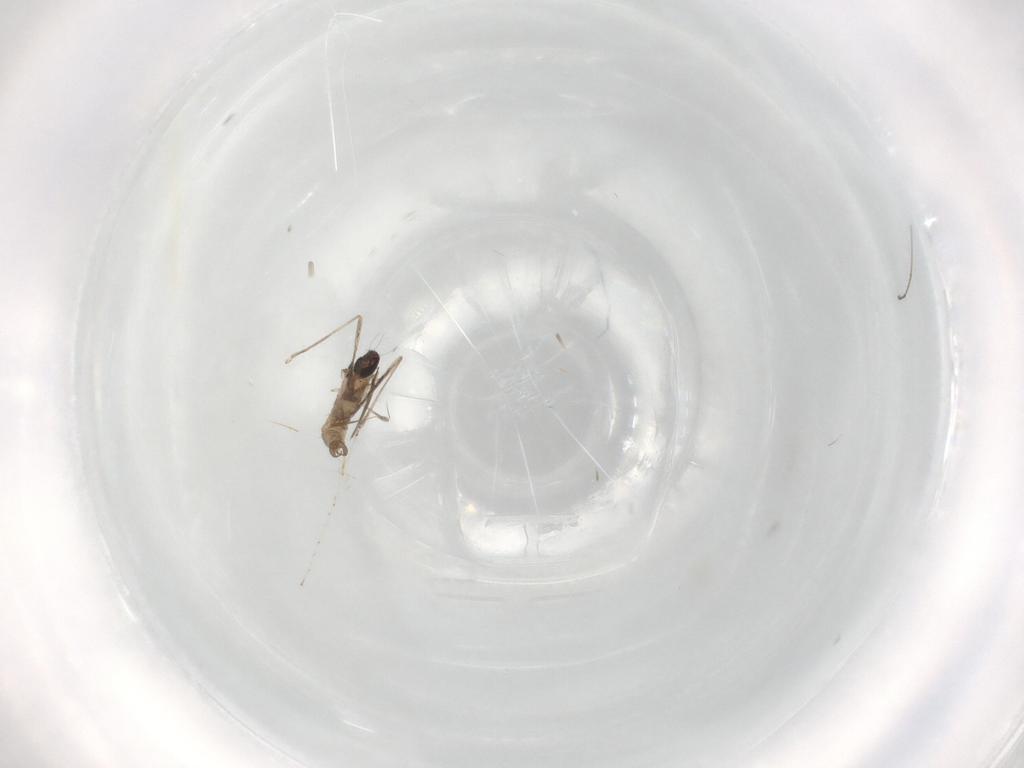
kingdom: Animalia
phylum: Arthropoda
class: Insecta
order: Diptera
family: Cecidomyiidae
